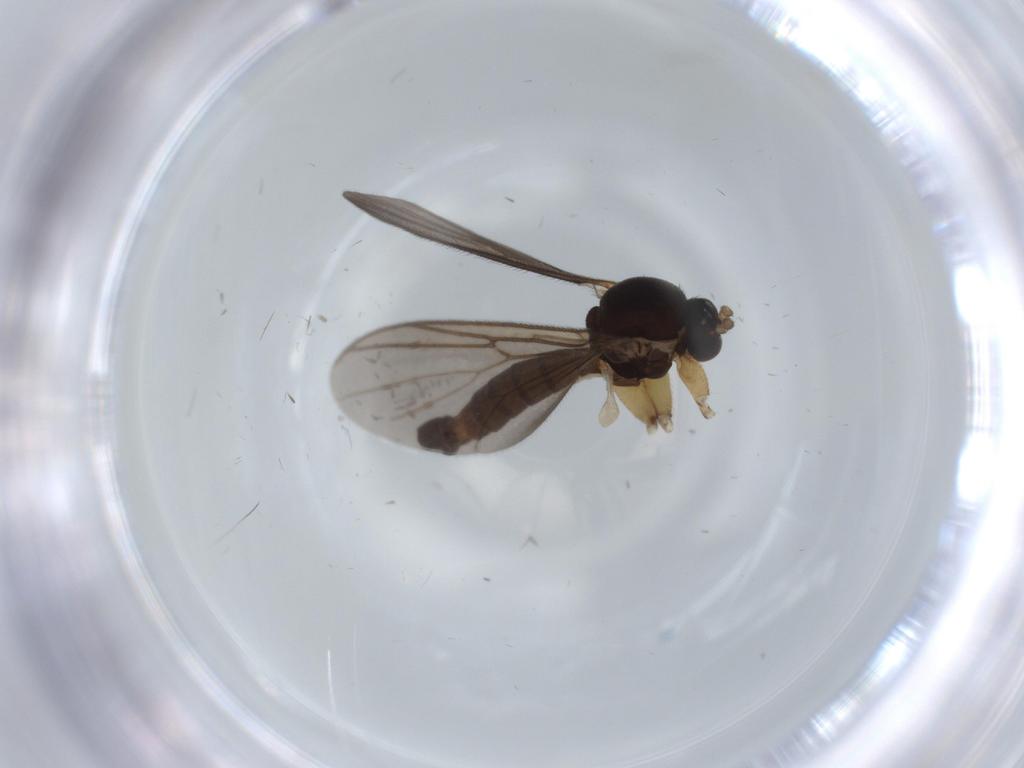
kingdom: Animalia
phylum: Arthropoda
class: Insecta
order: Diptera
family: Mycetophilidae
